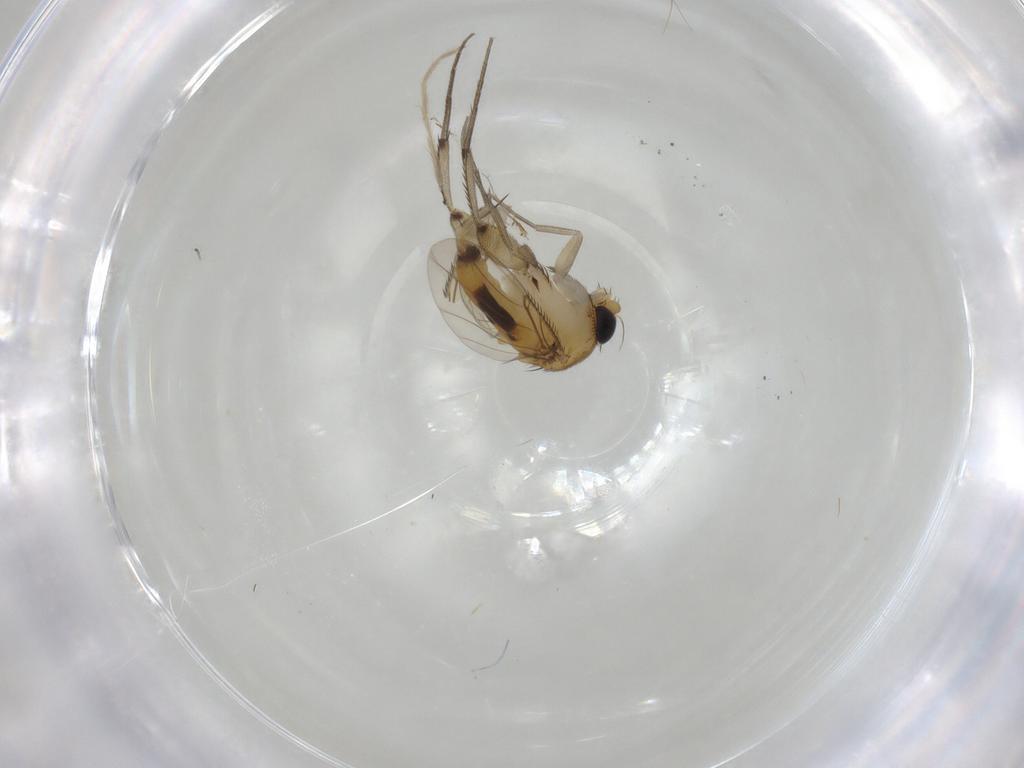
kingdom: Animalia
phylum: Arthropoda
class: Insecta
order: Diptera
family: Phoridae
